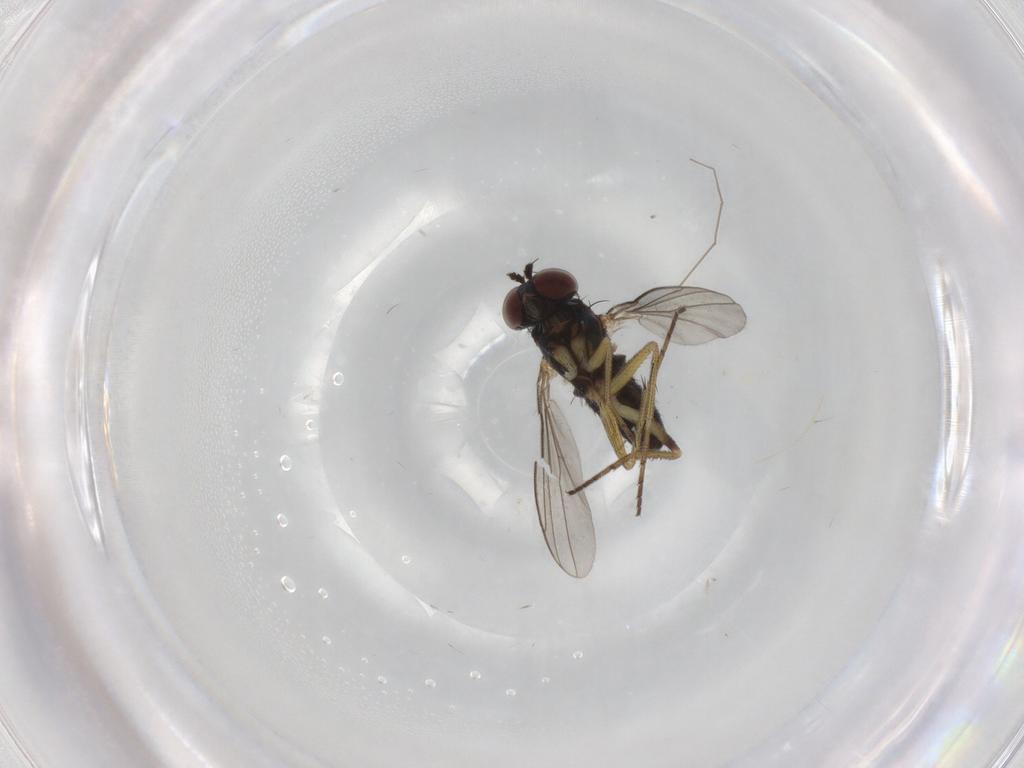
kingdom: Animalia
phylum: Arthropoda
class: Insecta
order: Diptera
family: Dolichopodidae
